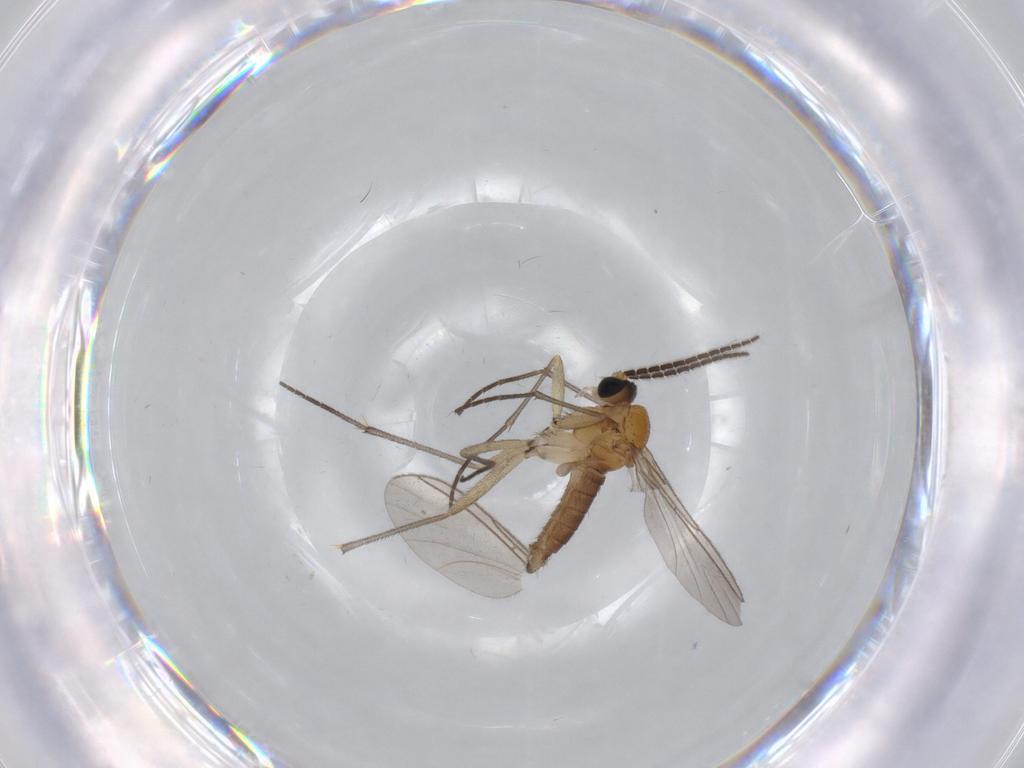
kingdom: Animalia
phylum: Arthropoda
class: Insecta
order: Diptera
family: Sciaridae
